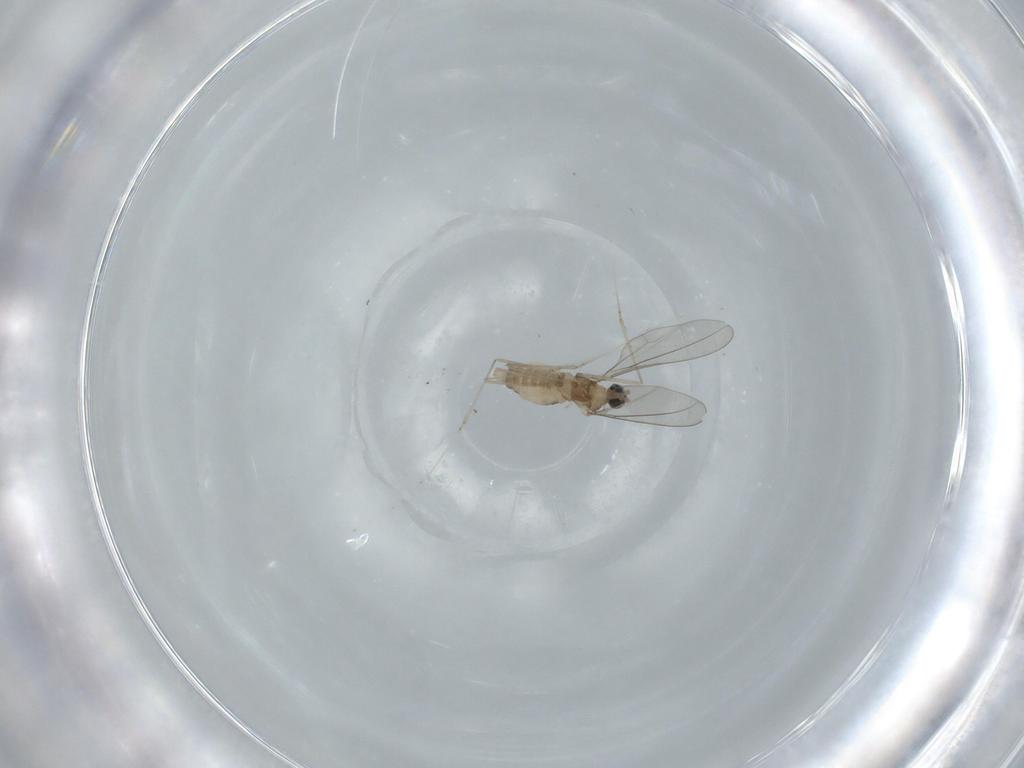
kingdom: Animalia
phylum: Arthropoda
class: Insecta
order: Diptera
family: Cecidomyiidae
